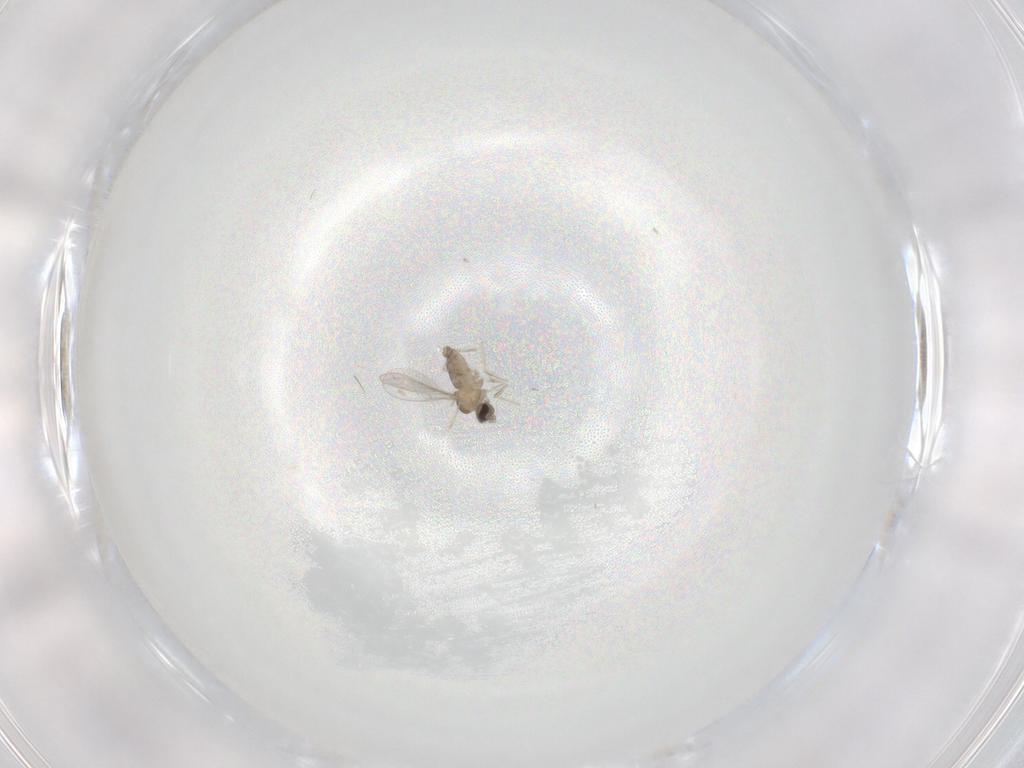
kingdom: Animalia
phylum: Arthropoda
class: Insecta
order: Diptera
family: Cecidomyiidae
